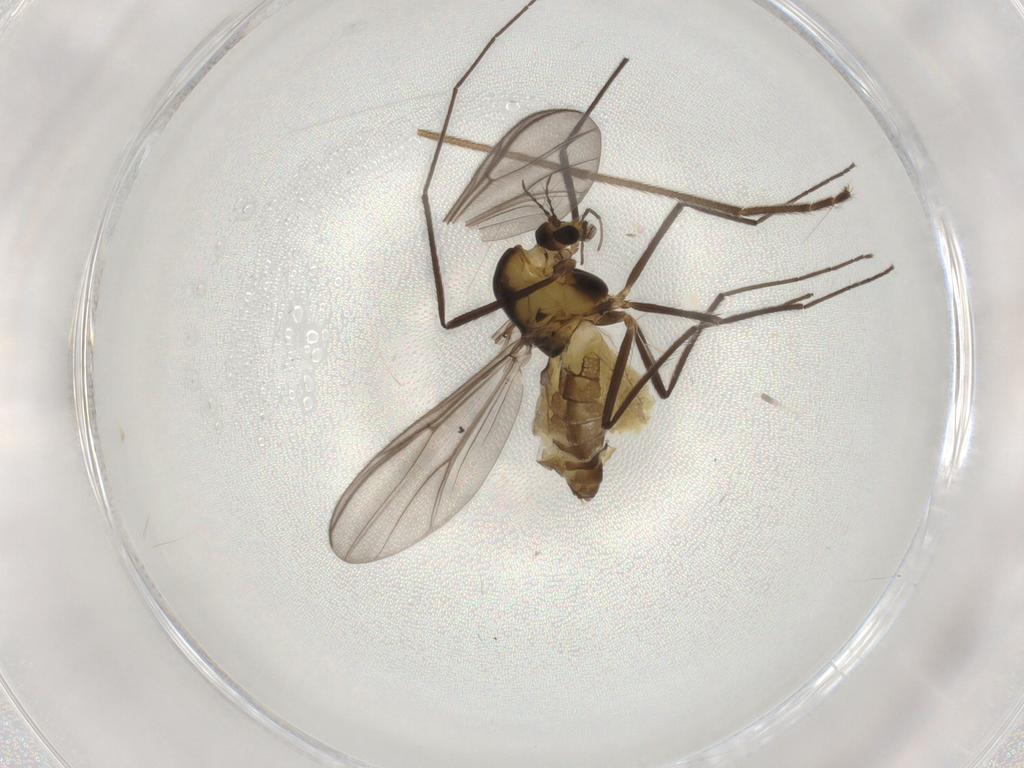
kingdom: Animalia
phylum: Arthropoda
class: Insecta
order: Diptera
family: Chironomidae
